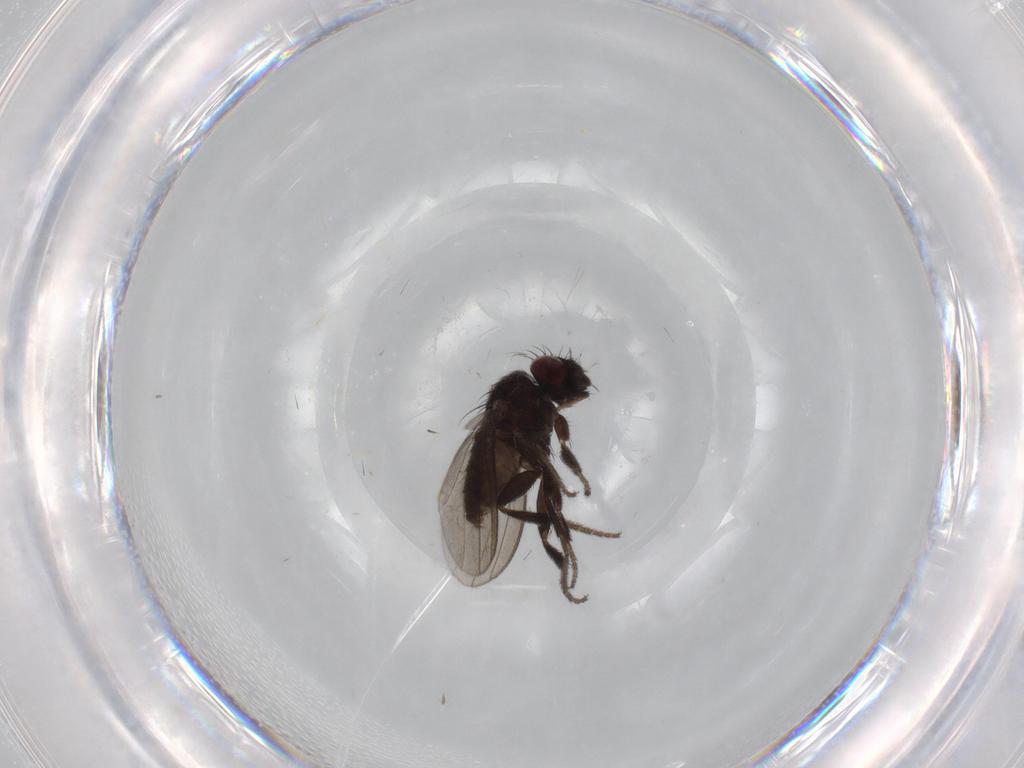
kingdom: Animalia
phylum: Arthropoda
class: Insecta
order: Diptera
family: Milichiidae
